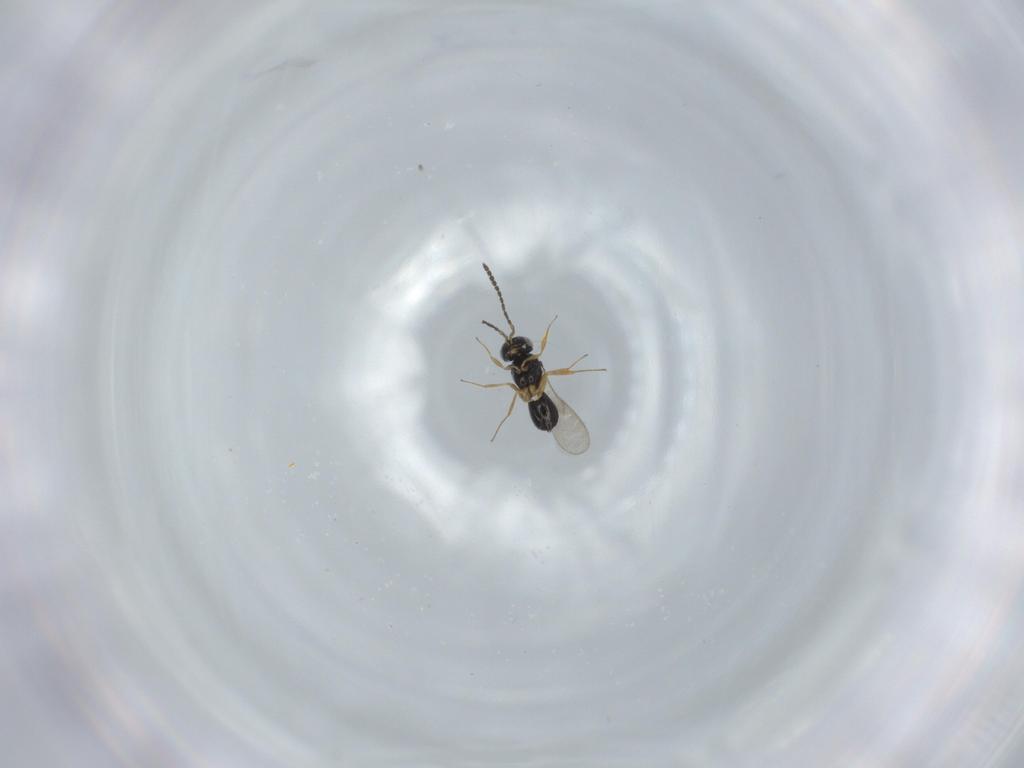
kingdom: Animalia
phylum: Arthropoda
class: Insecta
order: Hymenoptera
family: Scelionidae
